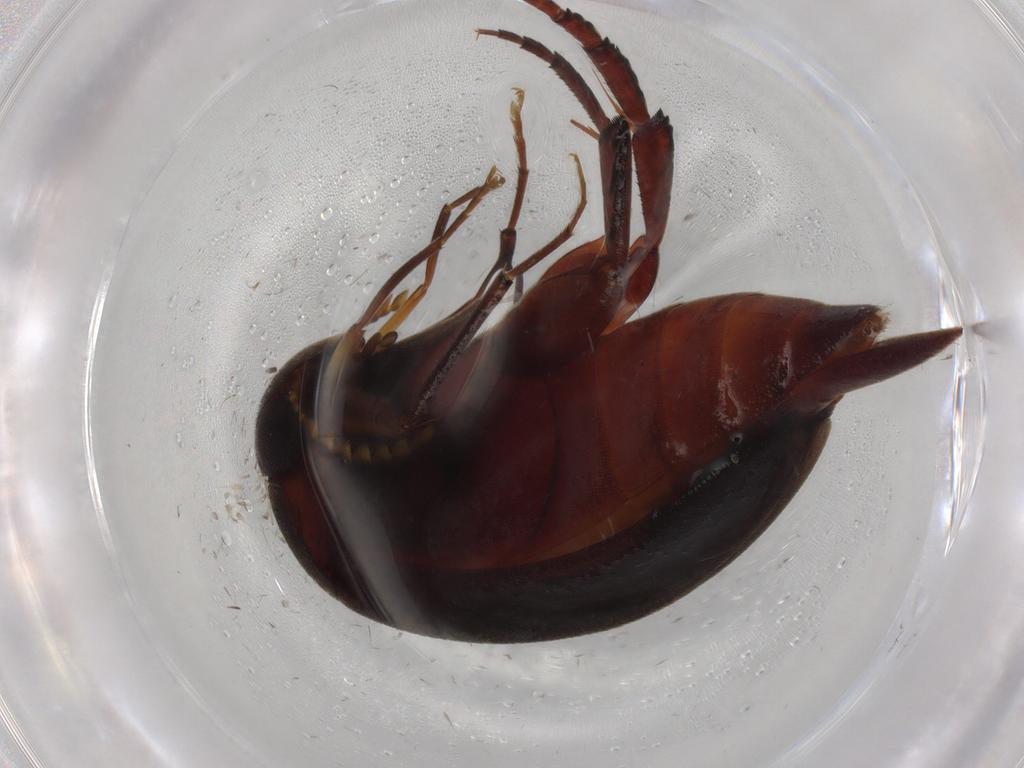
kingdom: Animalia
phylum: Arthropoda
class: Insecta
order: Coleoptera
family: Mordellidae
